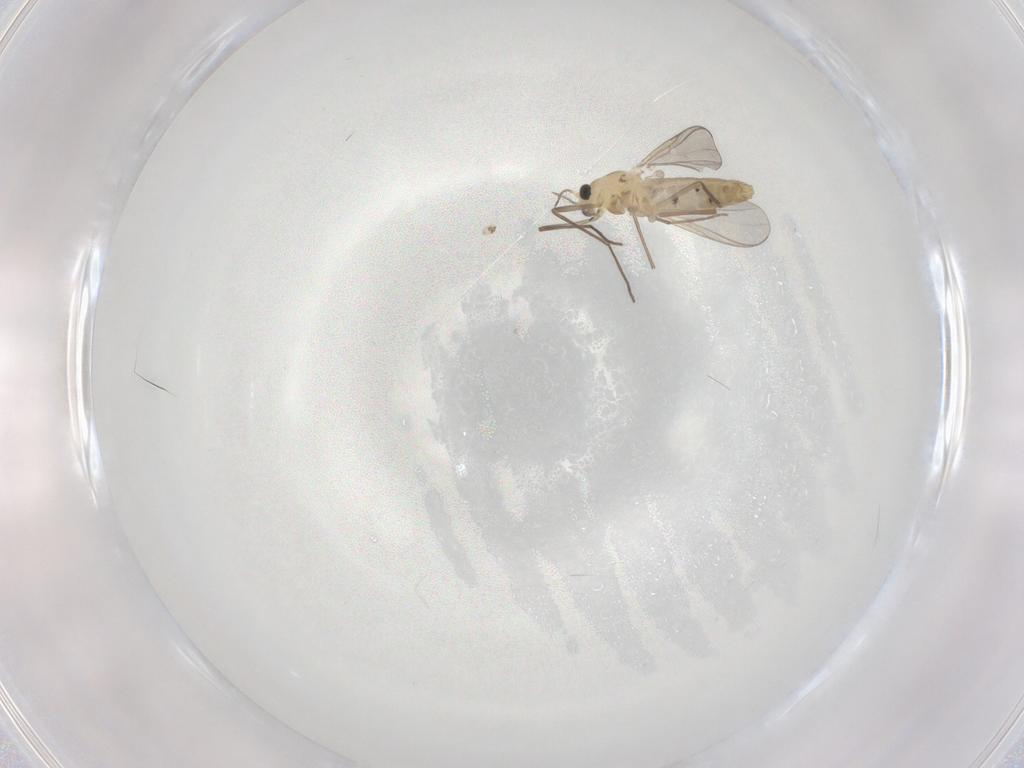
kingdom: Animalia
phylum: Arthropoda
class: Insecta
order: Diptera
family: Chironomidae
